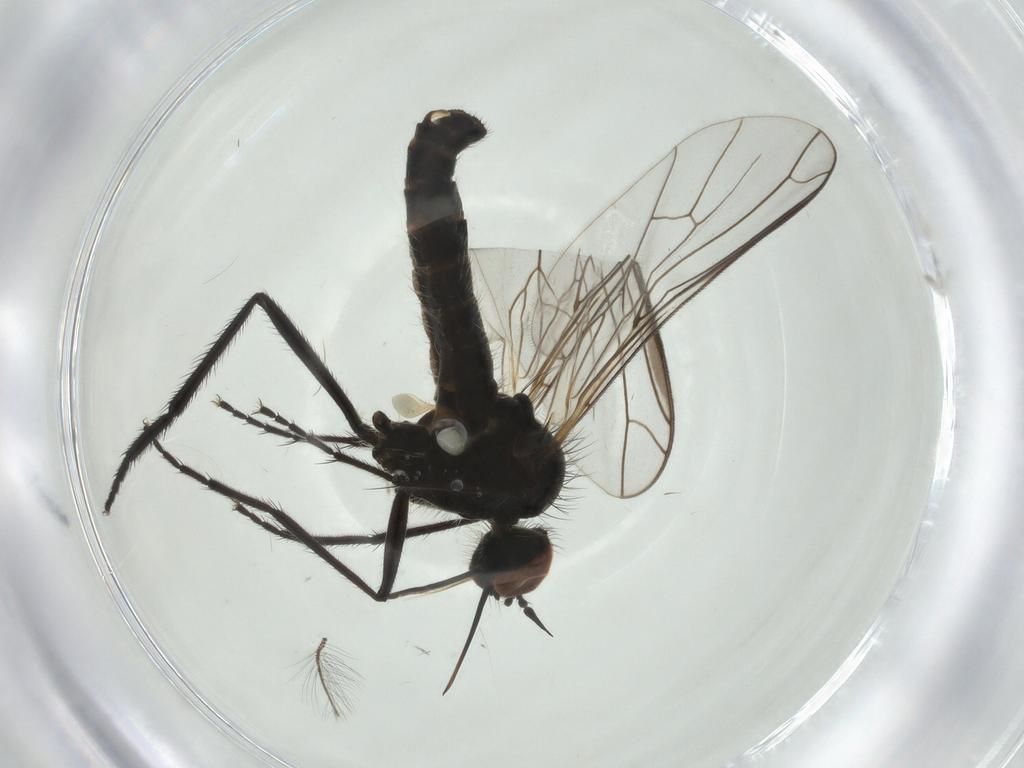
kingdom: Animalia
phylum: Arthropoda
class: Insecta
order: Diptera
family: Empididae
